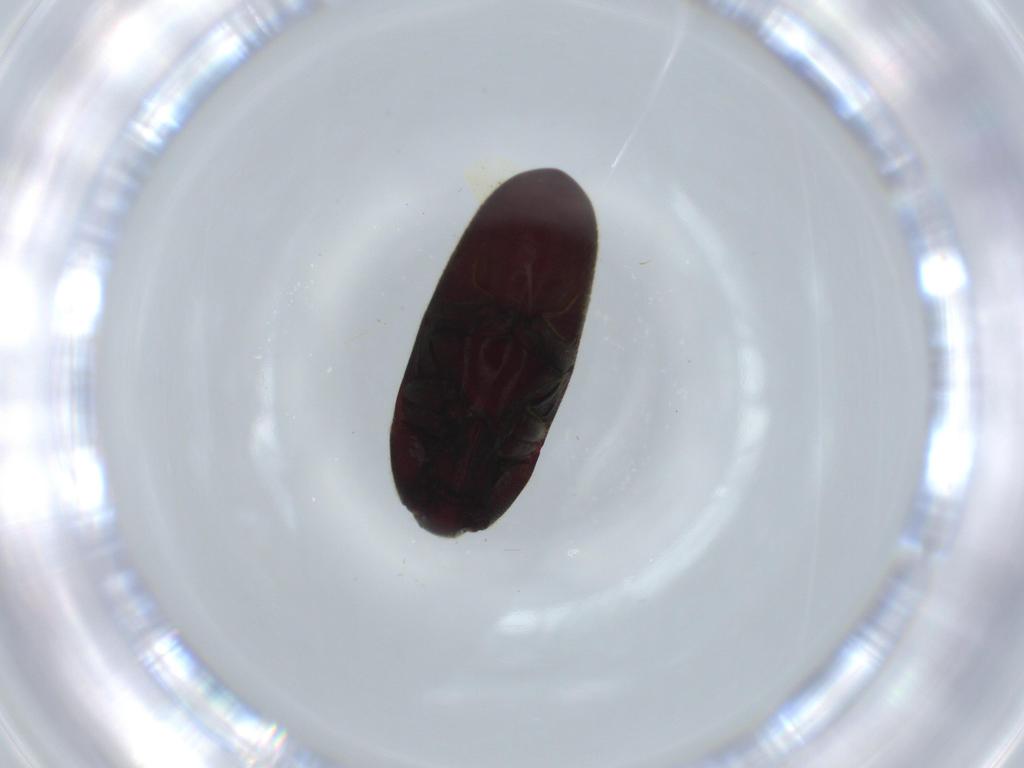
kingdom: Animalia
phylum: Arthropoda
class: Insecta
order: Coleoptera
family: Throscidae
